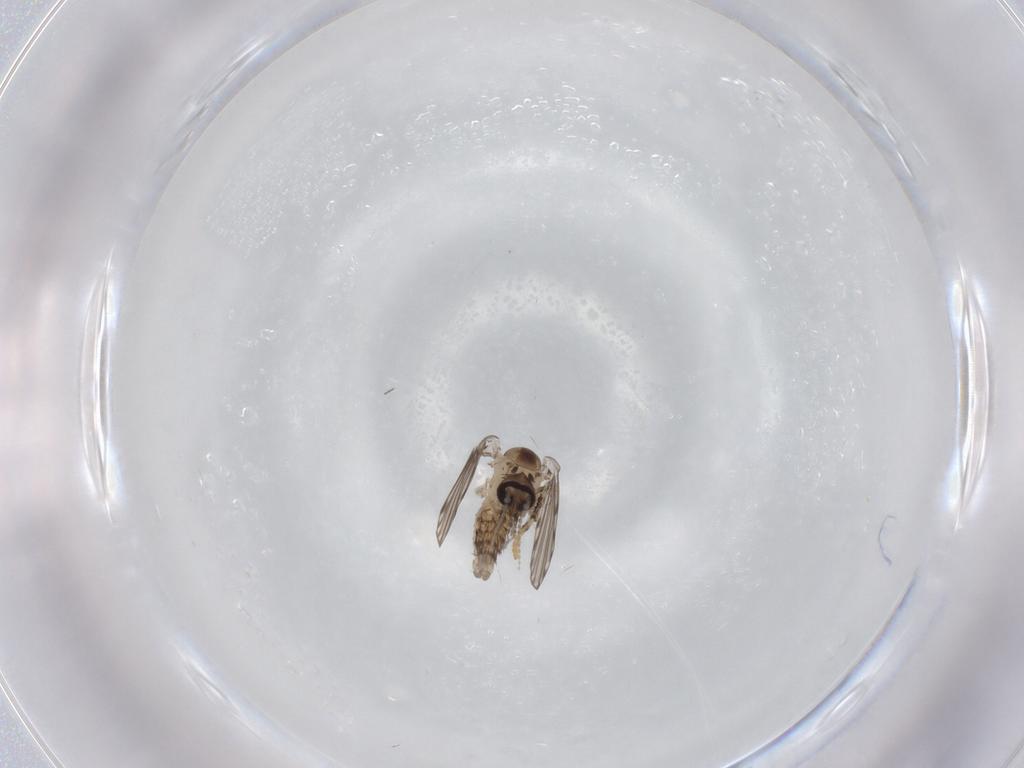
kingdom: Animalia
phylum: Arthropoda
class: Insecta
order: Diptera
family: Psychodidae
